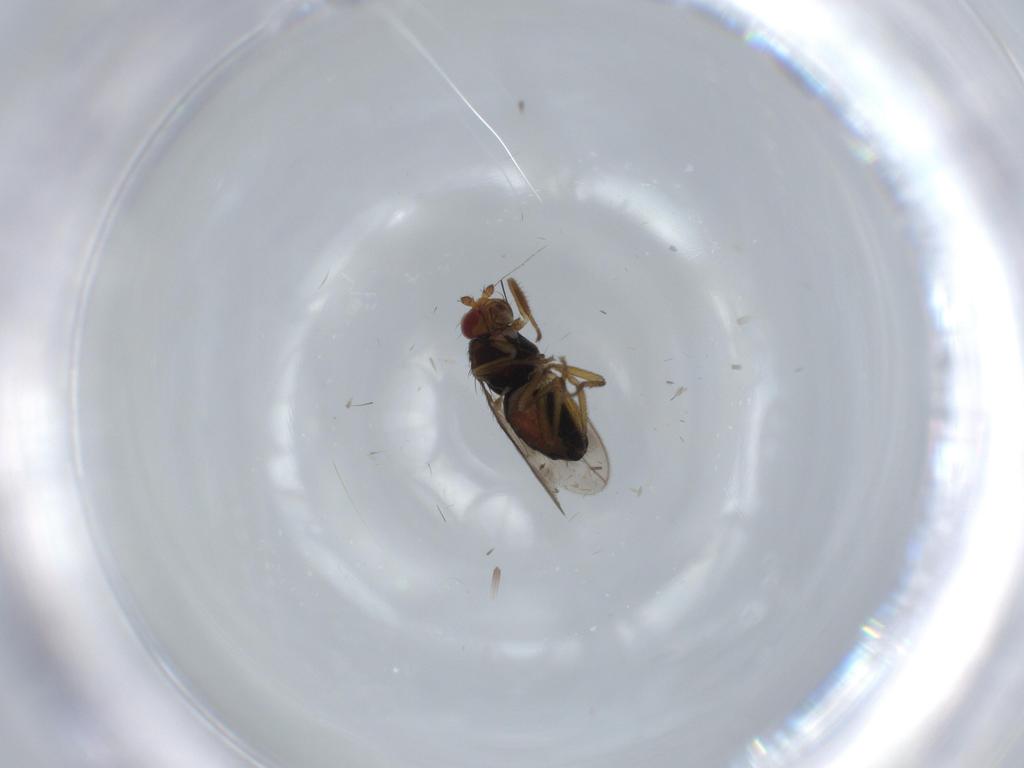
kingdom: Animalia
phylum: Arthropoda
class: Insecta
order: Diptera
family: Sphaeroceridae
